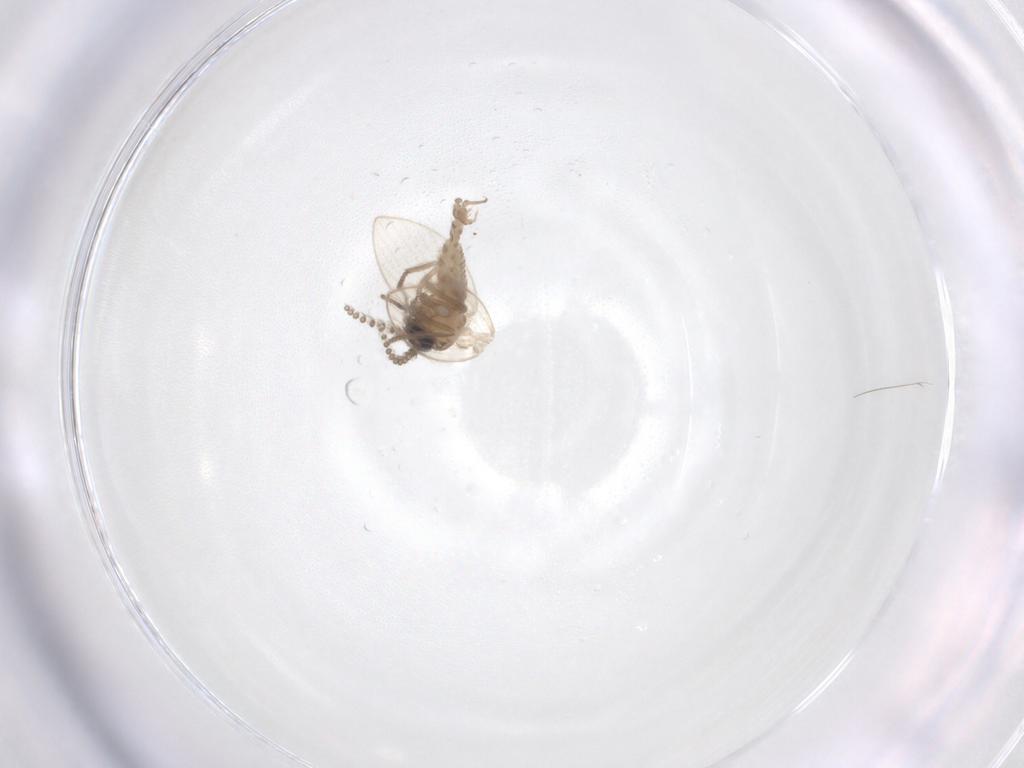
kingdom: Animalia
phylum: Arthropoda
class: Insecta
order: Diptera
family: Psychodidae
